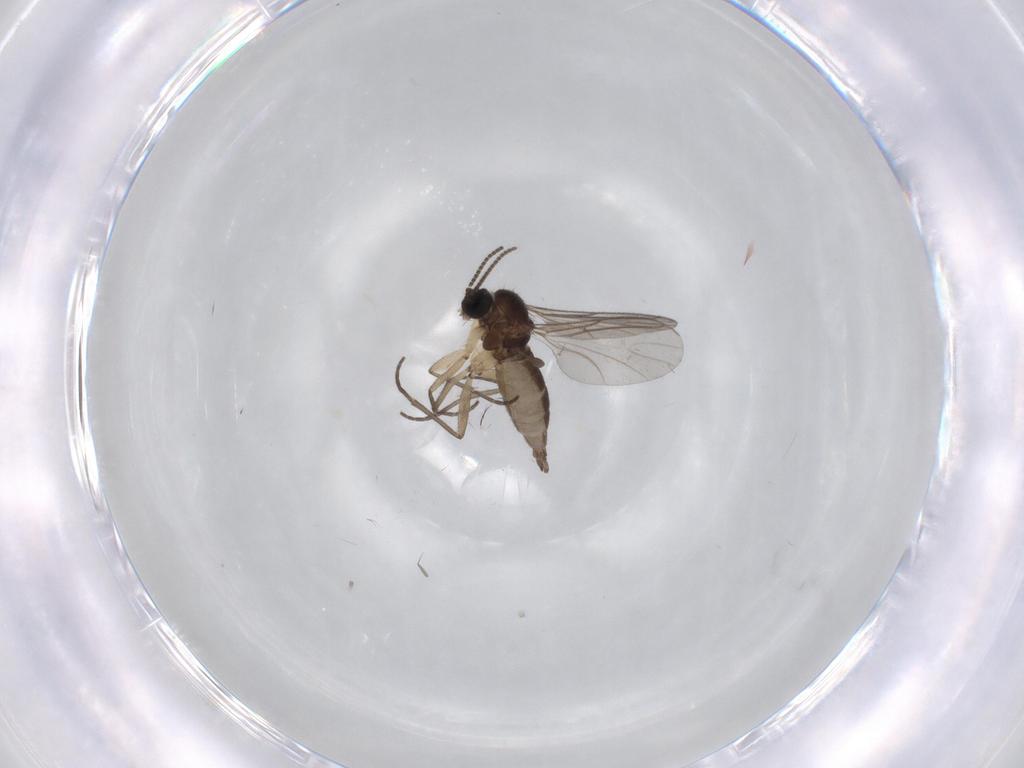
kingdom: Animalia
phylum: Arthropoda
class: Insecta
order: Diptera
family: Sciaridae
